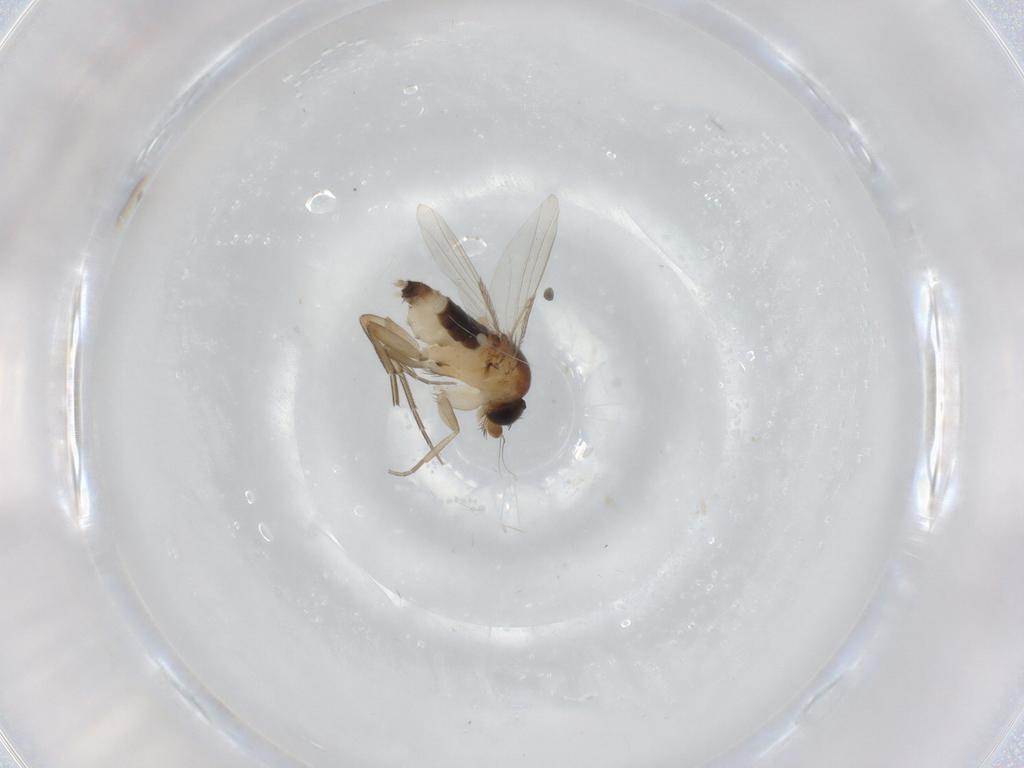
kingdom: Animalia
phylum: Arthropoda
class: Insecta
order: Diptera
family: Phoridae
